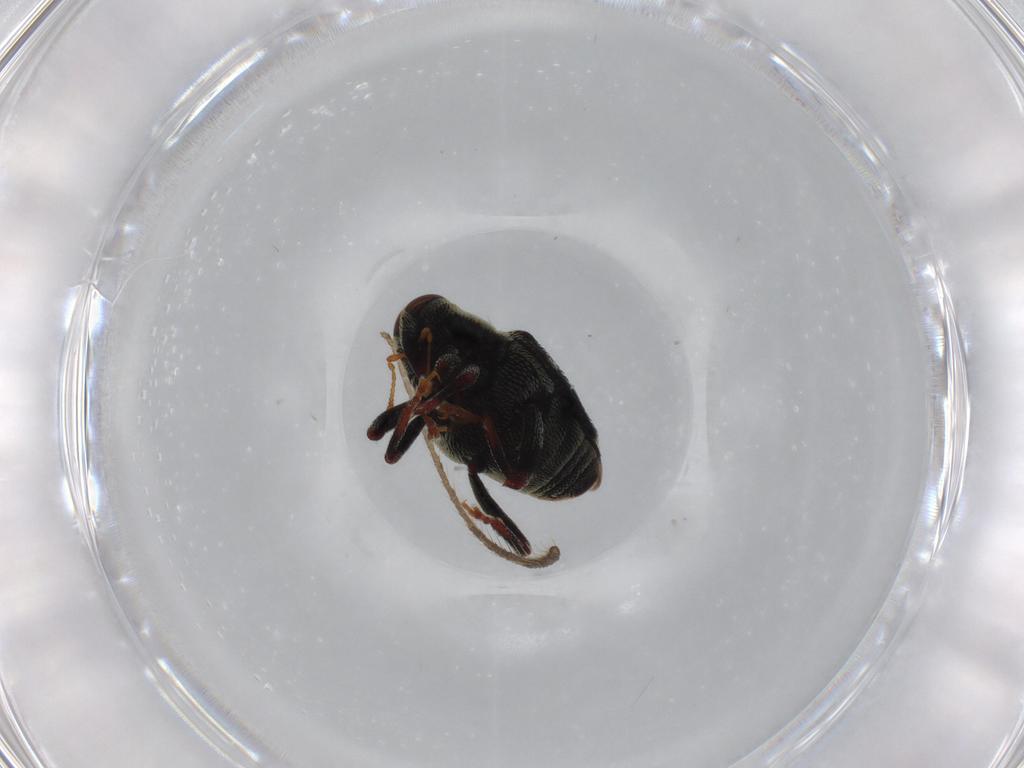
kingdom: Animalia
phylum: Arthropoda
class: Insecta
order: Coleoptera
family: Curculionidae
